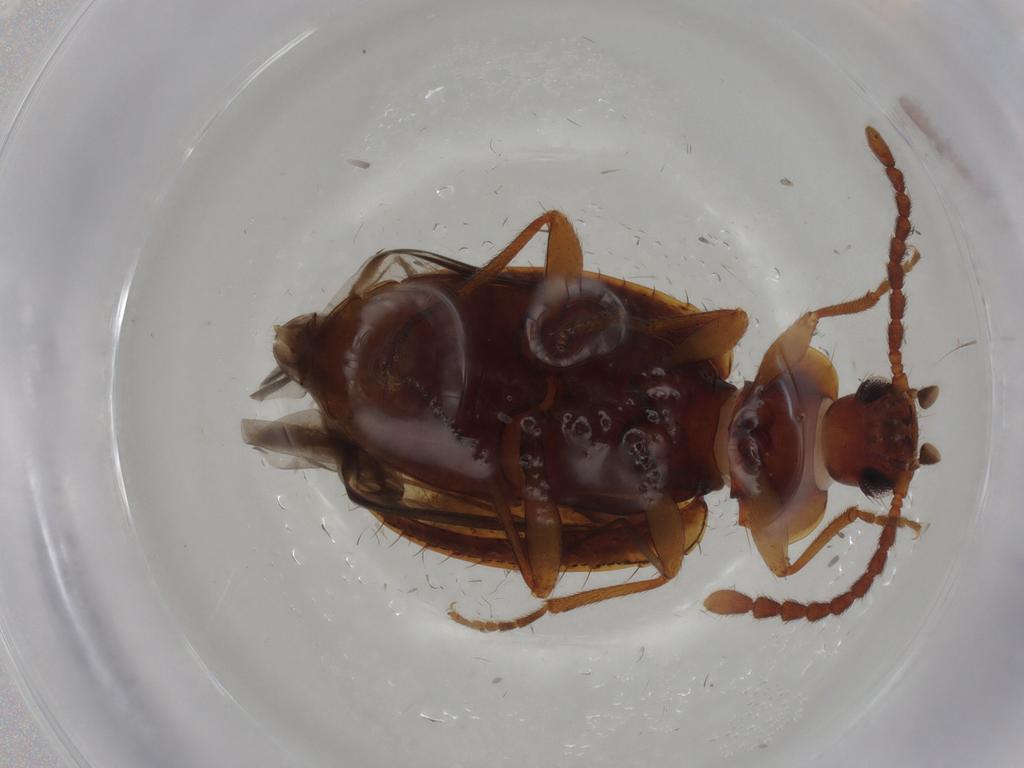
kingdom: Animalia
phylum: Arthropoda
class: Insecta
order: Coleoptera
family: Tenebrionidae
